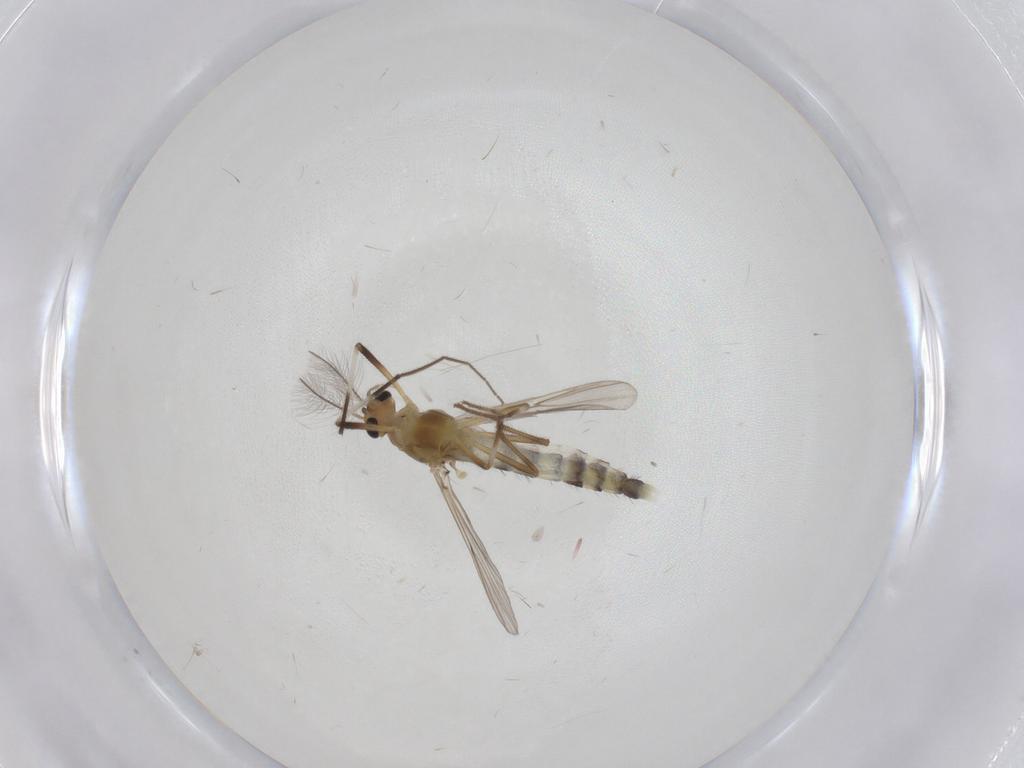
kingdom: Animalia
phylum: Arthropoda
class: Insecta
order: Diptera
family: Chironomidae
